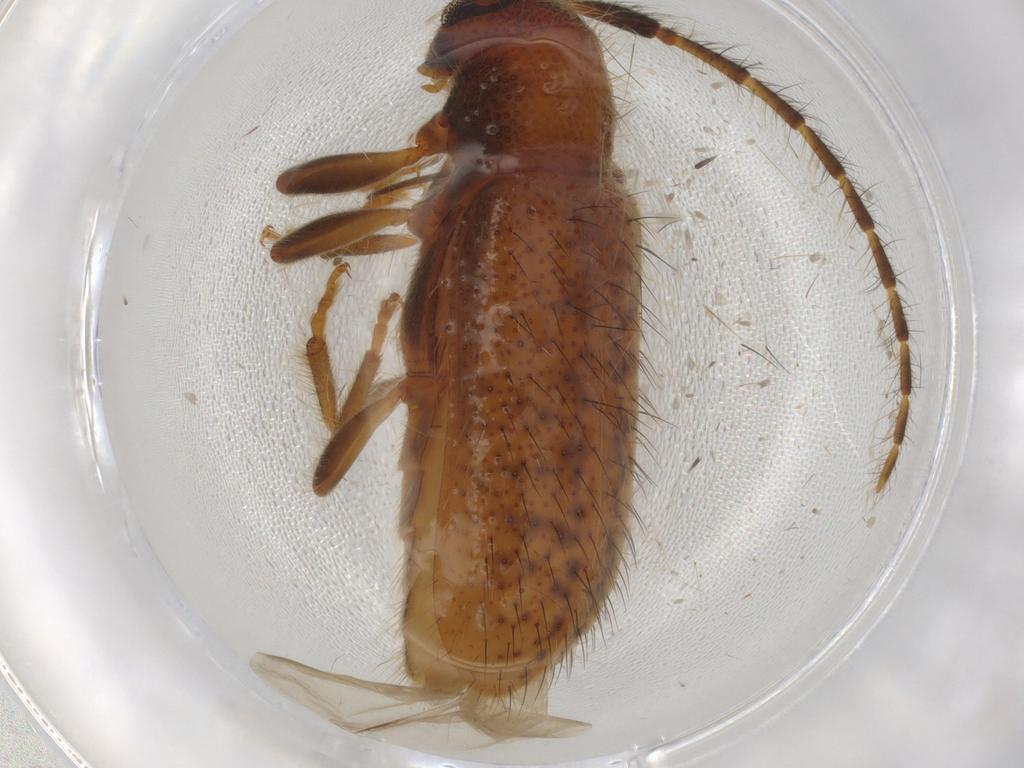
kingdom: Animalia
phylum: Arthropoda
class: Insecta
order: Coleoptera
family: Cerambycidae
